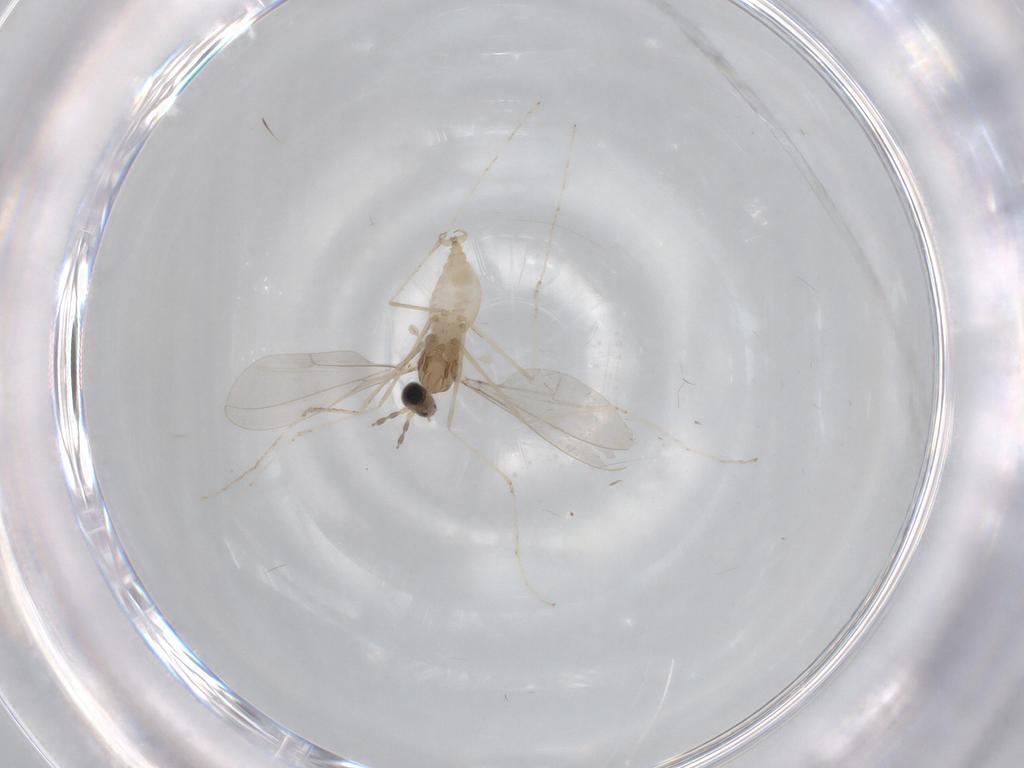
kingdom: Animalia
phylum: Arthropoda
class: Insecta
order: Diptera
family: Cecidomyiidae
